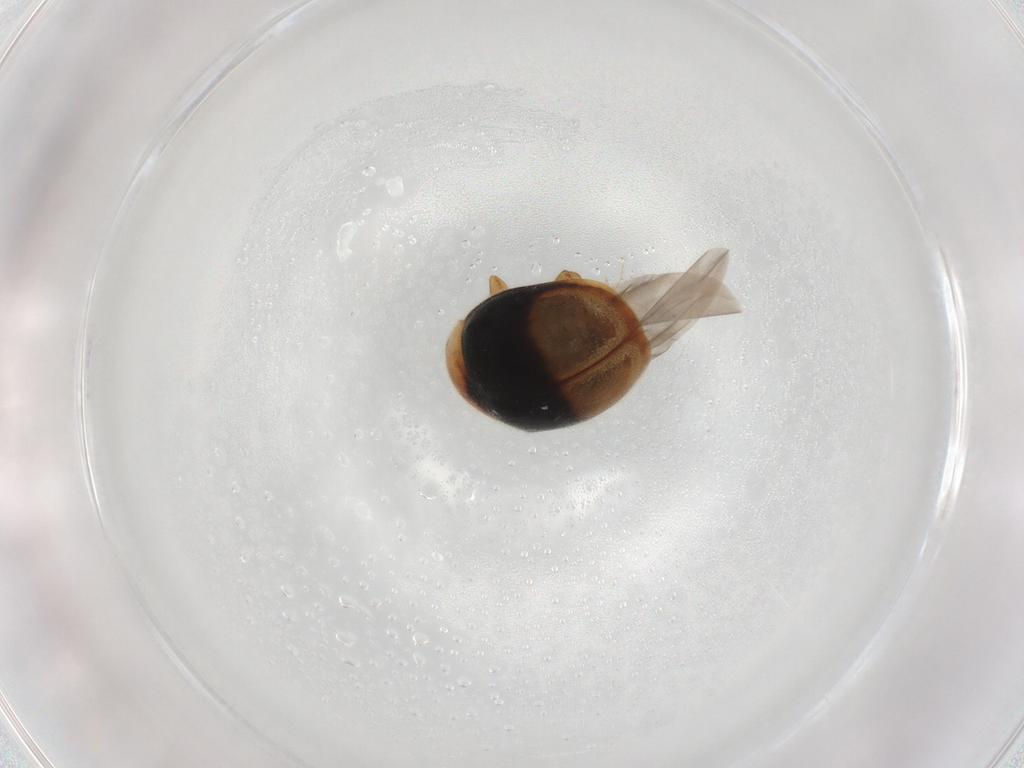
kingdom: Animalia
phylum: Arthropoda
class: Insecta
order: Coleoptera
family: Coccinellidae
